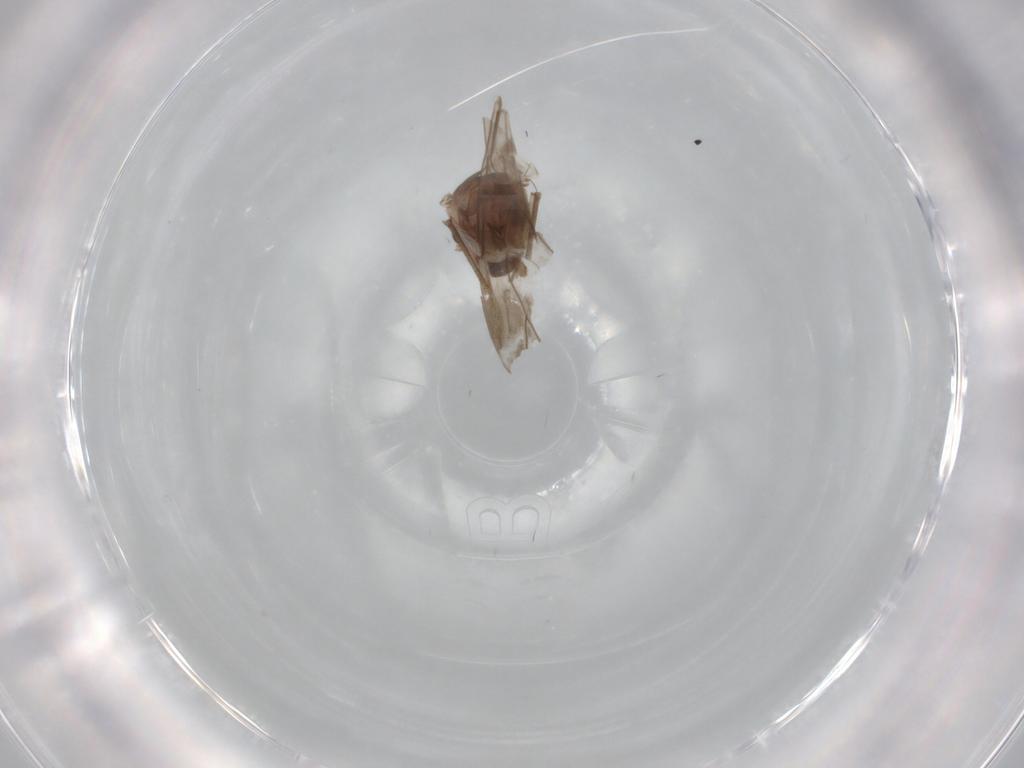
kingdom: Animalia
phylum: Arthropoda
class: Insecta
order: Psocodea
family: Peripsocidae
